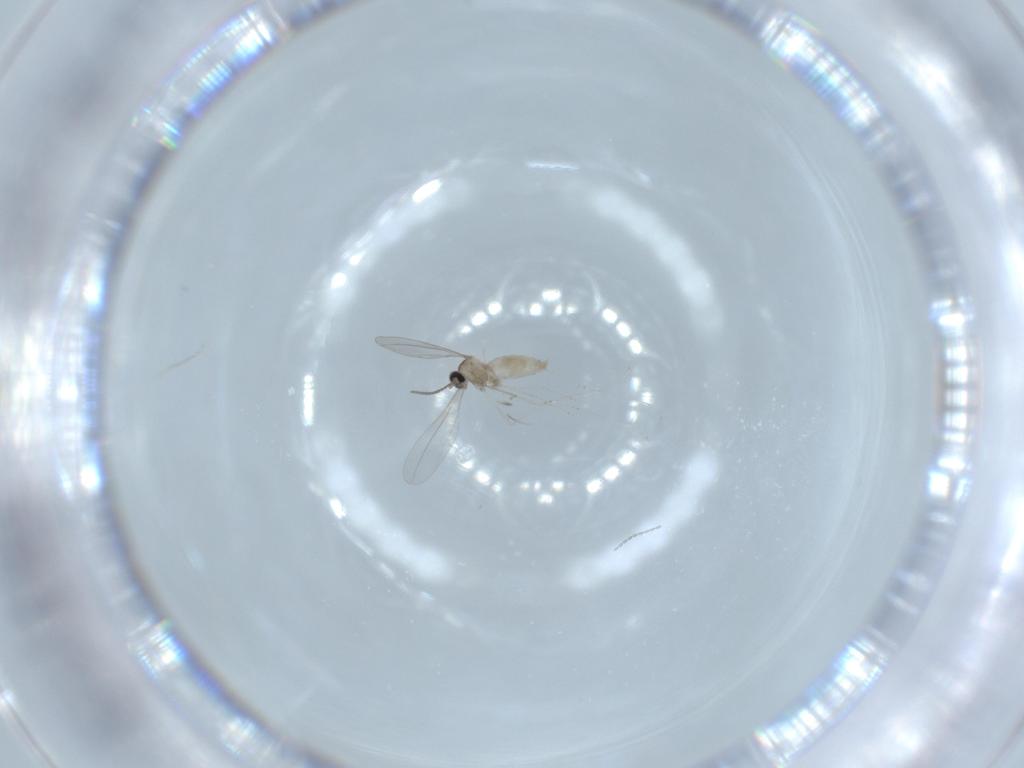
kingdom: Animalia
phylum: Arthropoda
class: Insecta
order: Diptera
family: Cecidomyiidae
